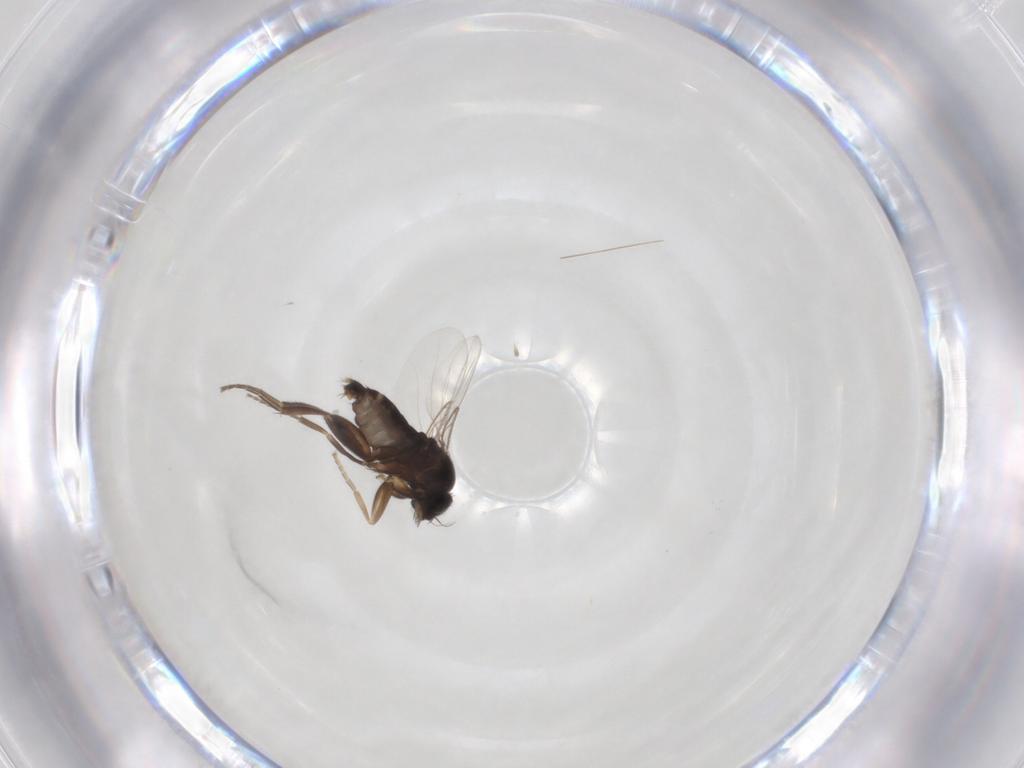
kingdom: Animalia
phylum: Arthropoda
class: Insecta
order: Diptera
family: Phoridae
